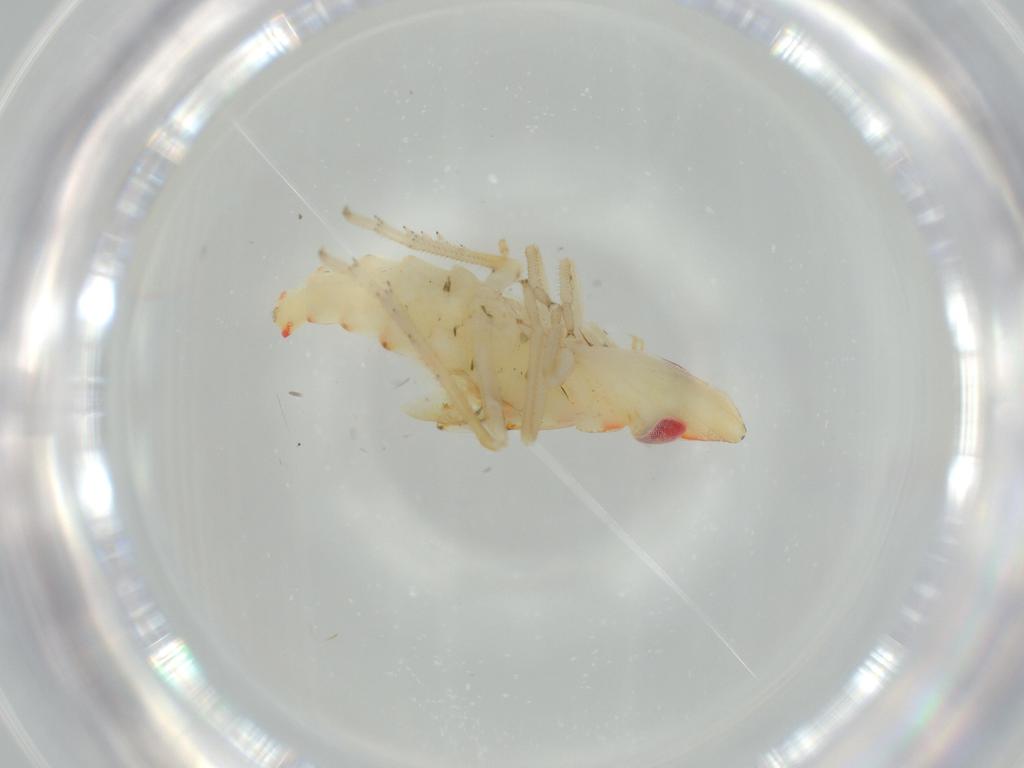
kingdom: Animalia
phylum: Arthropoda
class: Insecta
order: Hemiptera
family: Tropiduchidae
